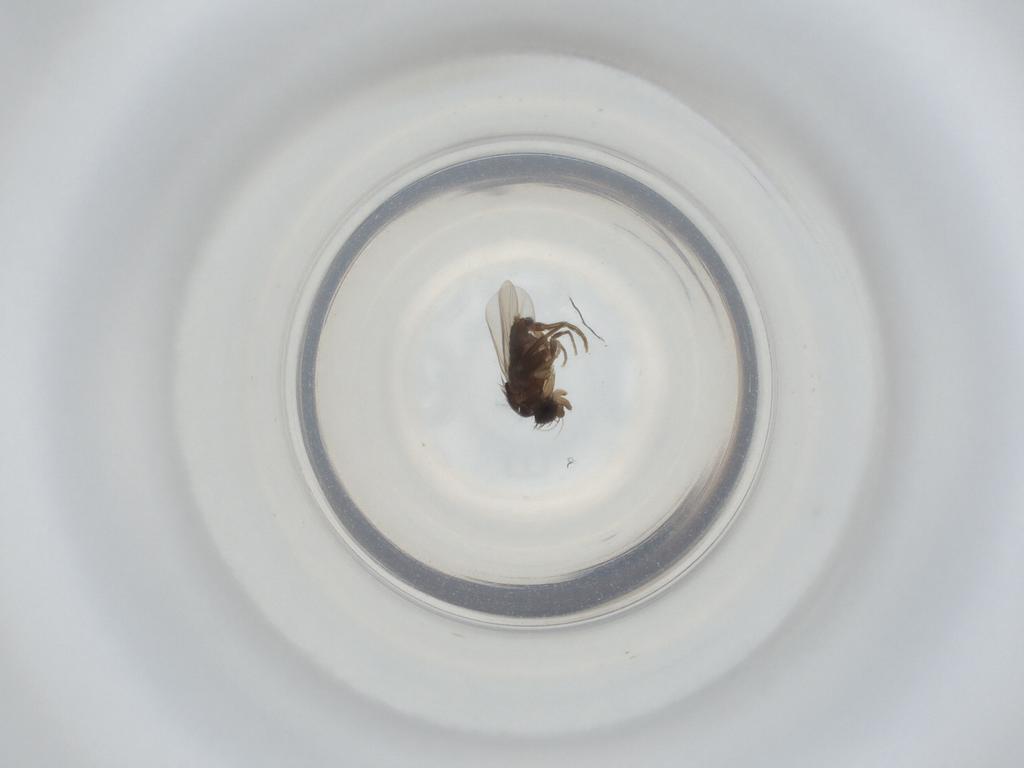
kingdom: Animalia
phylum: Arthropoda
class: Insecta
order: Diptera
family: Phoridae
